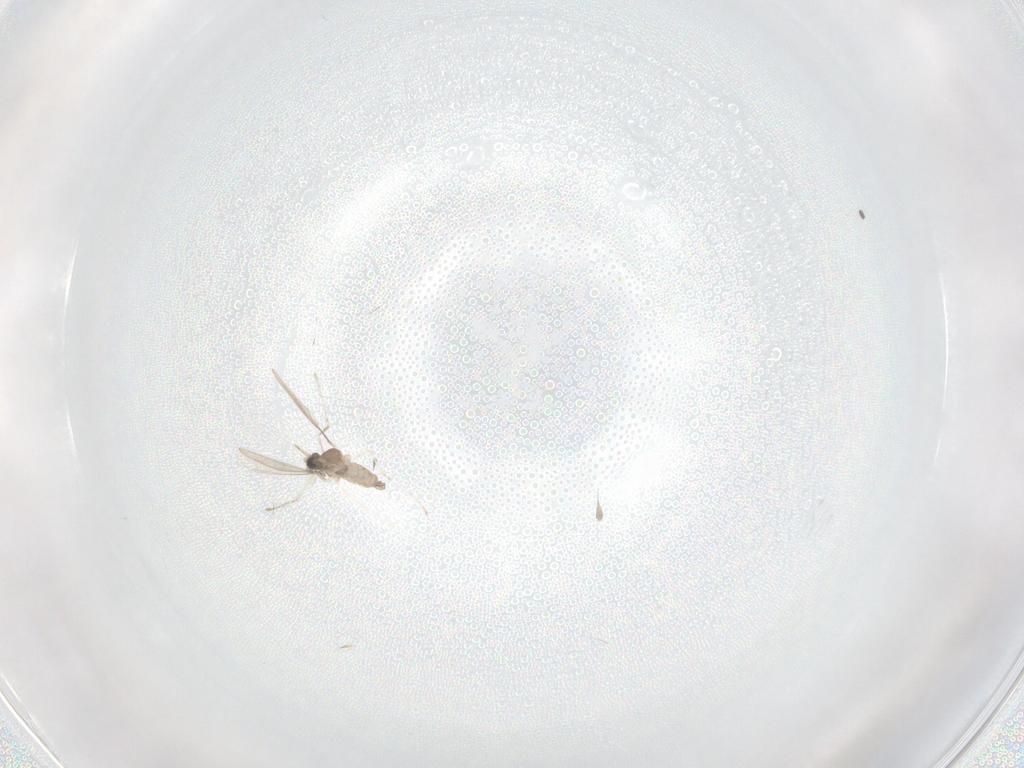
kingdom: Animalia
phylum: Arthropoda
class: Insecta
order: Diptera
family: Cecidomyiidae
